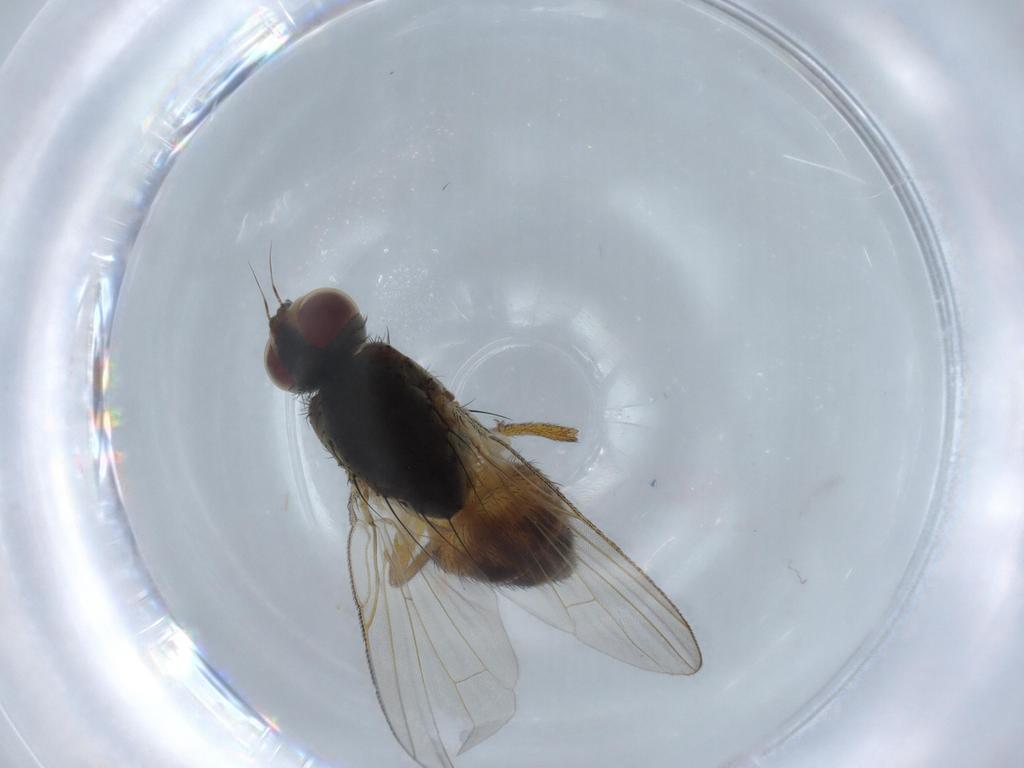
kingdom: Animalia
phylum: Arthropoda
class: Insecta
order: Diptera
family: Muscidae
